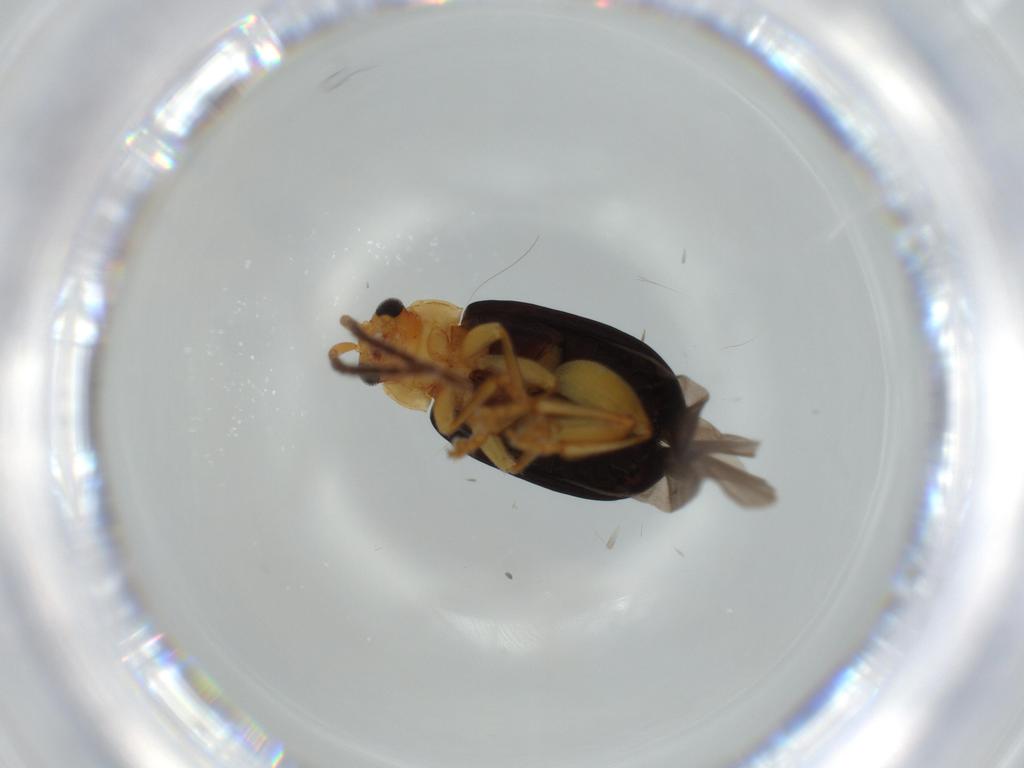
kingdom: Animalia
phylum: Arthropoda
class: Insecta
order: Coleoptera
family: Chrysomelidae
